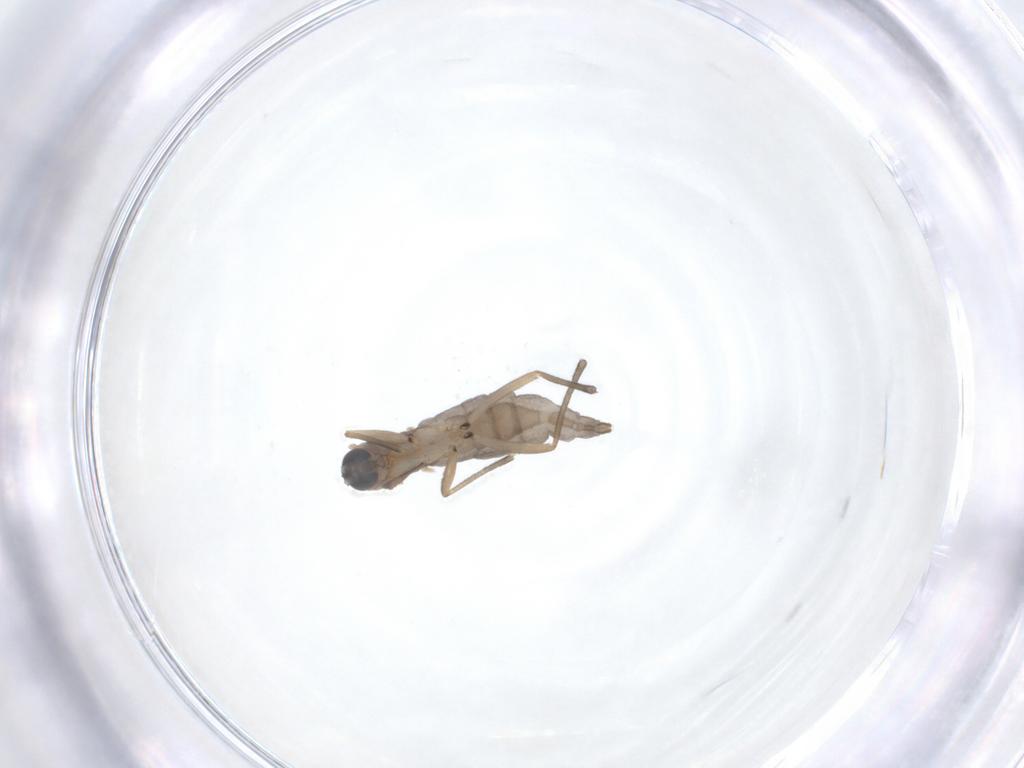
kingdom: Animalia
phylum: Arthropoda
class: Insecta
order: Diptera
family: Sciaridae
